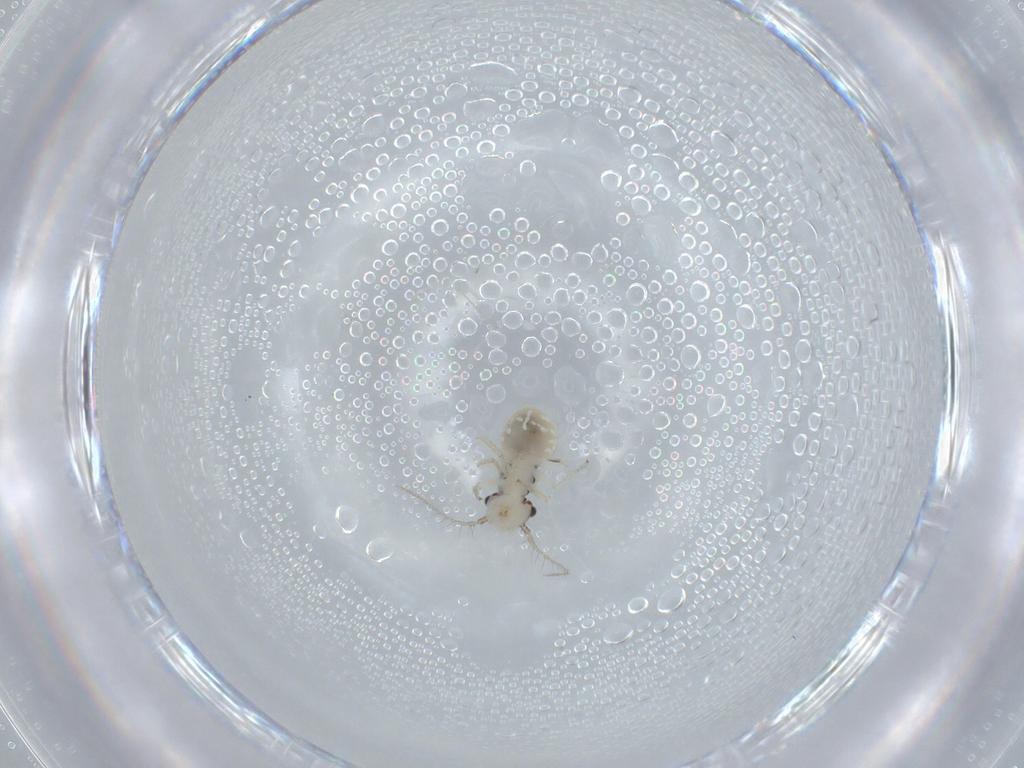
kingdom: Animalia
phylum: Arthropoda
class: Insecta
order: Psocodea
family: Pseudocaeciliidae
